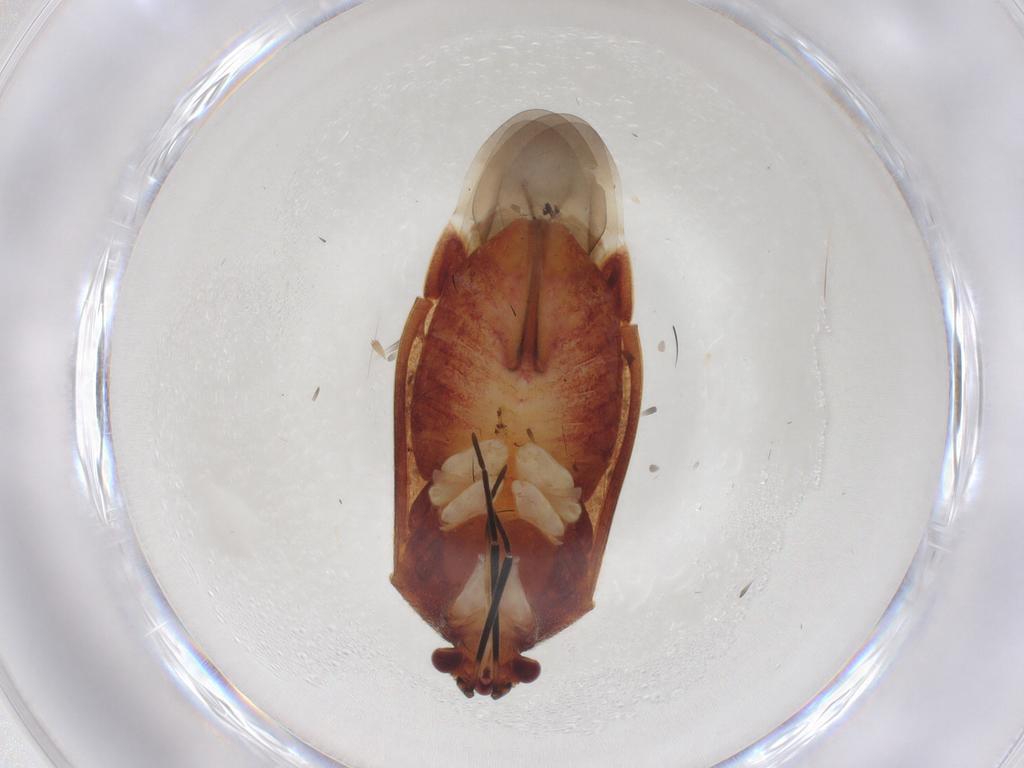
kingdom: Animalia
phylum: Arthropoda
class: Insecta
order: Hemiptera
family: Miridae
